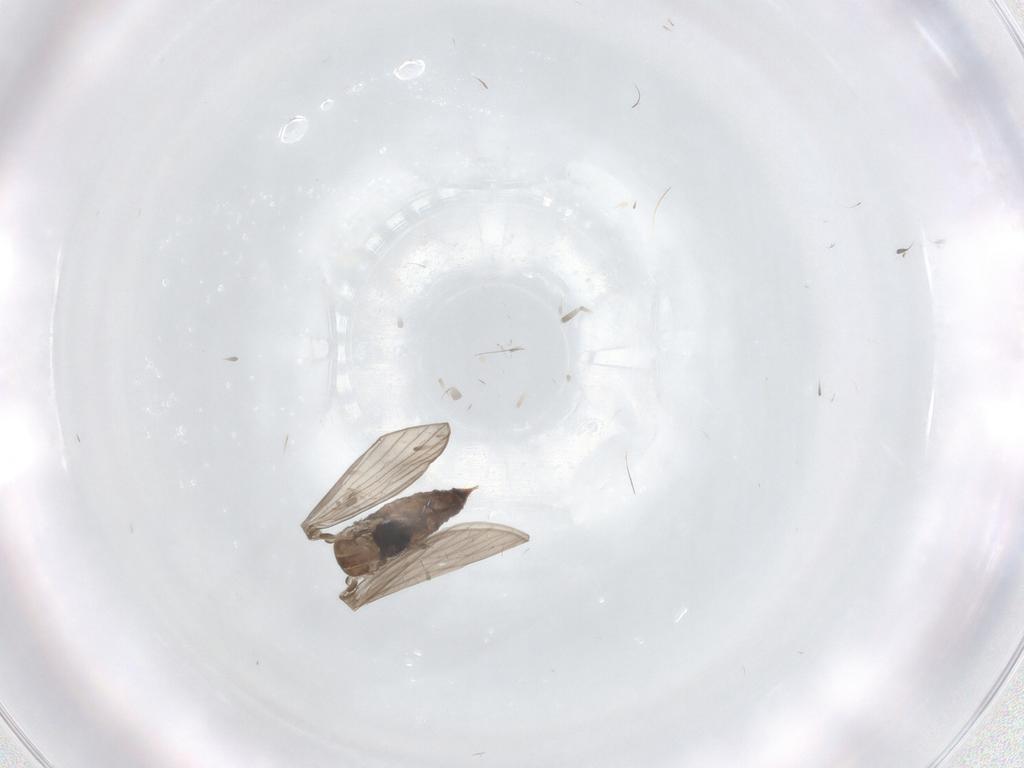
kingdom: Animalia
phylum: Arthropoda
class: Insecta
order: Diptera
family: Psychodidae
